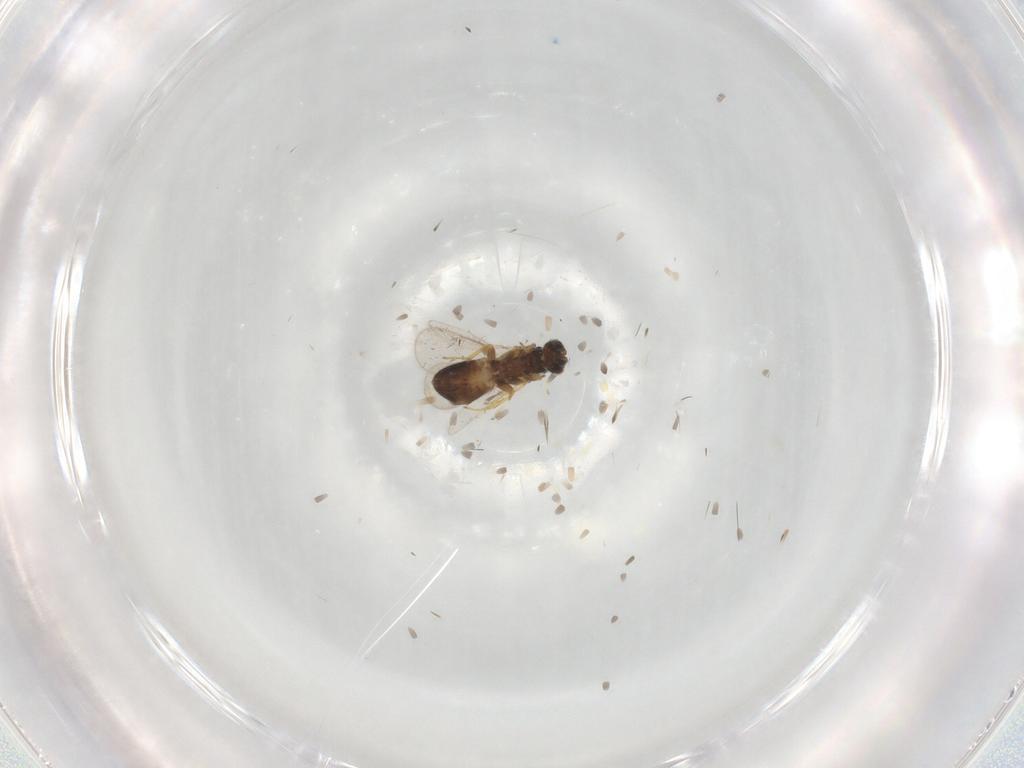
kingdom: Animalia
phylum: Arthropoda
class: Insecta
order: Hymenoptera
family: Eulophidae
